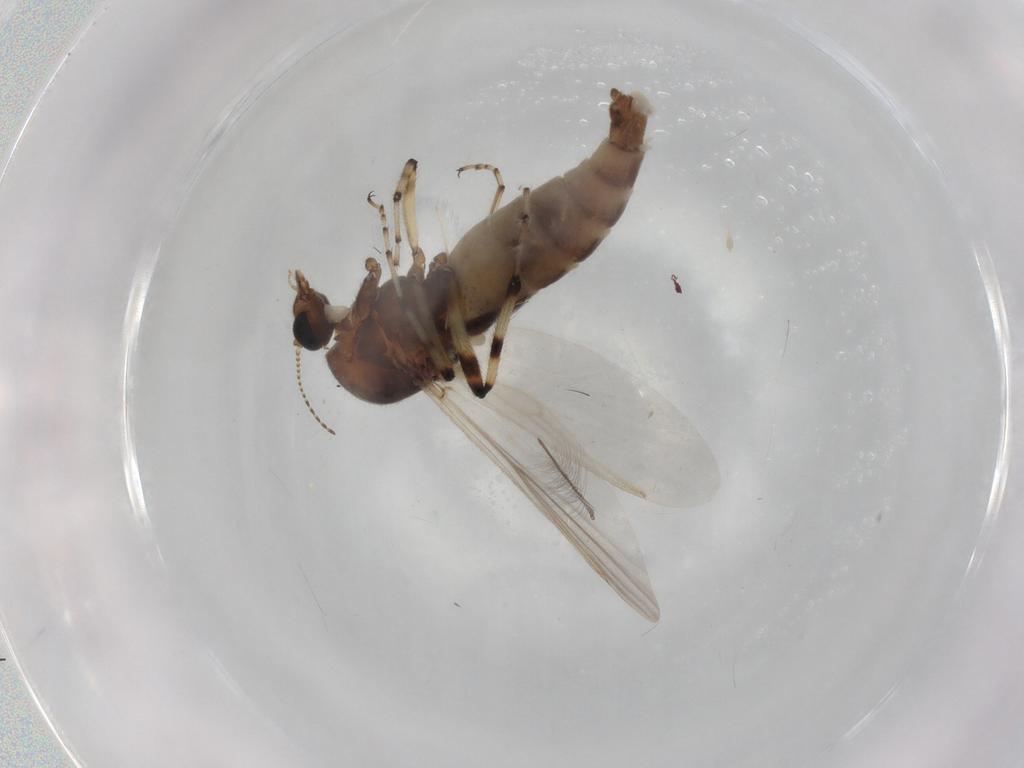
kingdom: Animalia
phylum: Arthropoda
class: Insecta
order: Diptera
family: Chironomidae
